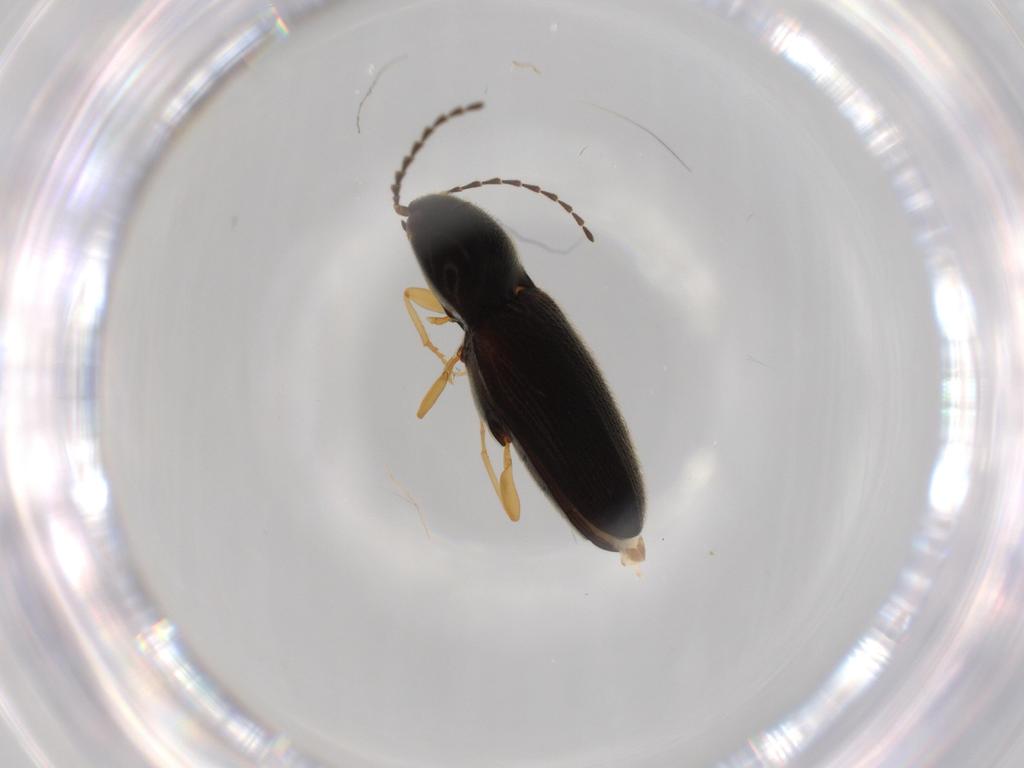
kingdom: Animalia
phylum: Arthropoda
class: Insecta
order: Coleoptera
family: Elateridae
